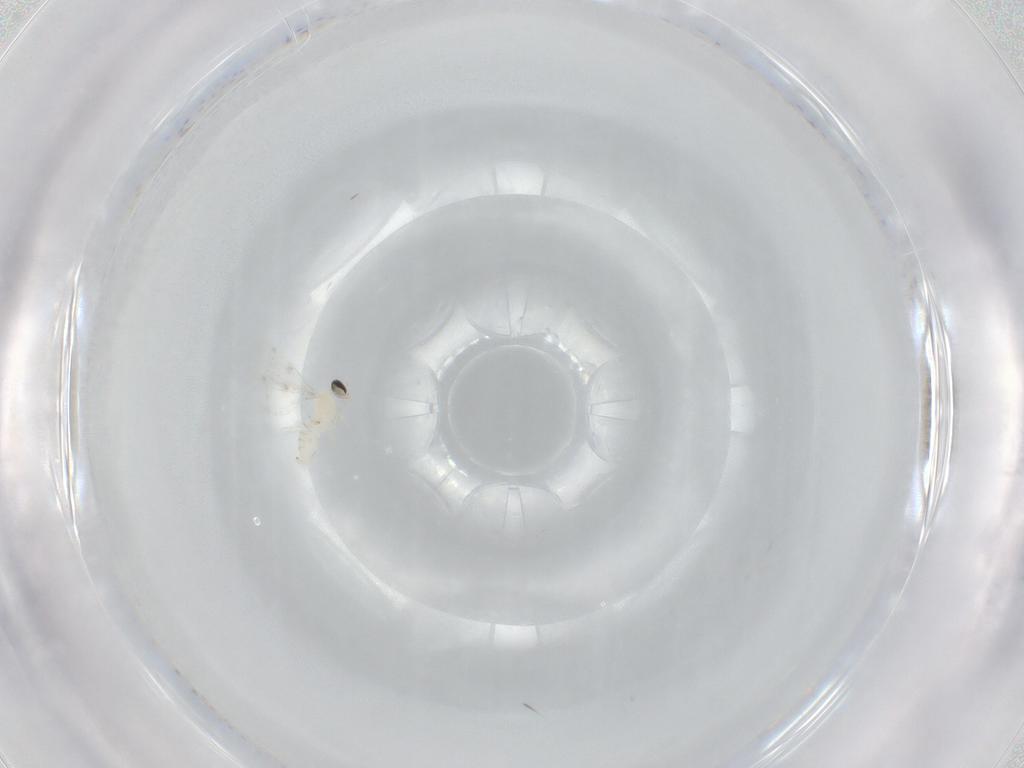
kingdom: Animalia
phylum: Arthropoda
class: Insecta
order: Diptera
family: Cecidomyiidae
